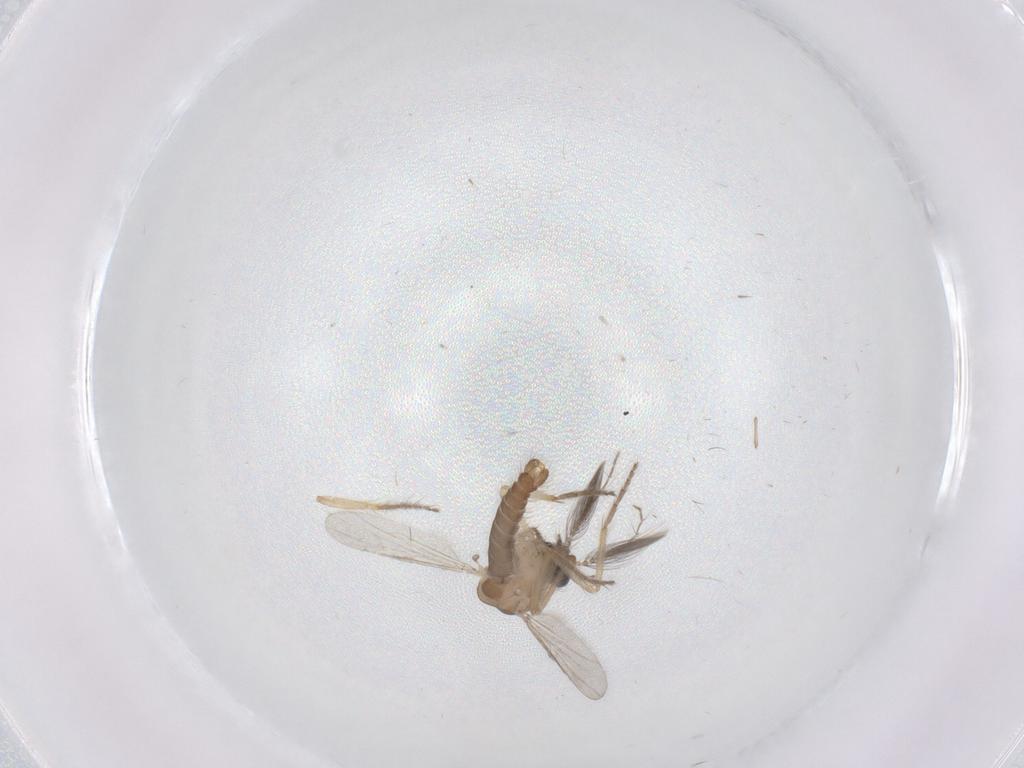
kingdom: Animalia
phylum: Arthropoda
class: Insecta
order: Diptera
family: Ceratopogonidae
